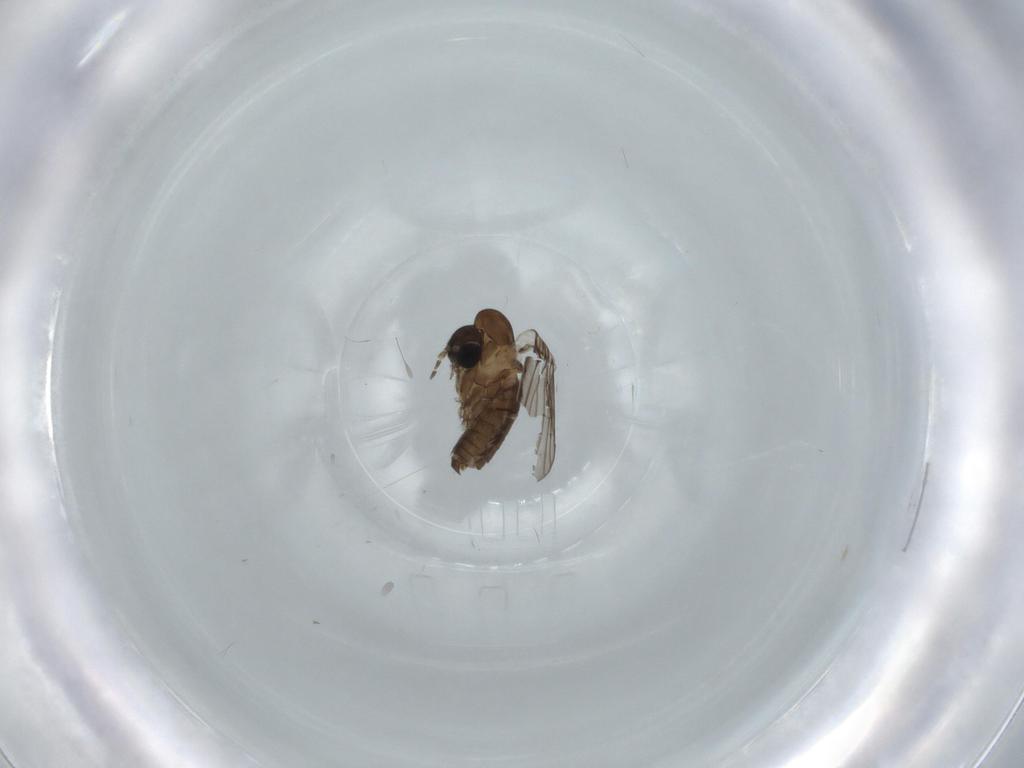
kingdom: Animalia
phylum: Arthropoda
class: Insecta
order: Diptera
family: Psychodidae
